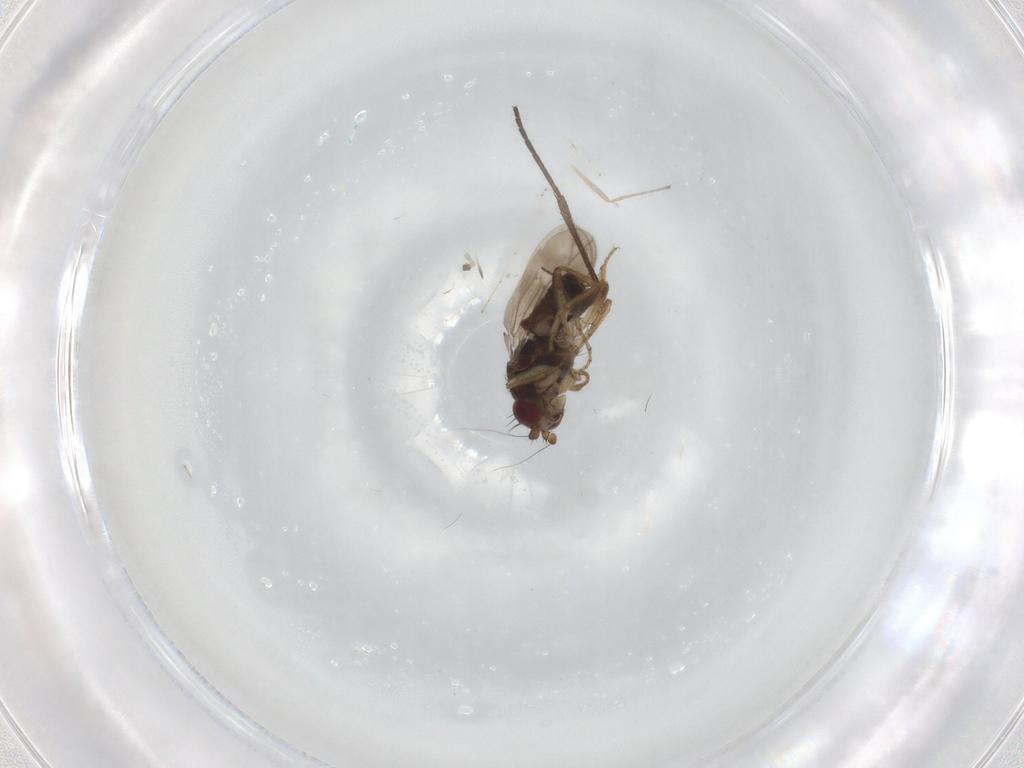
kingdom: Animalia
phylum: Arthropoda
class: Insecta
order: Diptera
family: Sphaeroceridae
